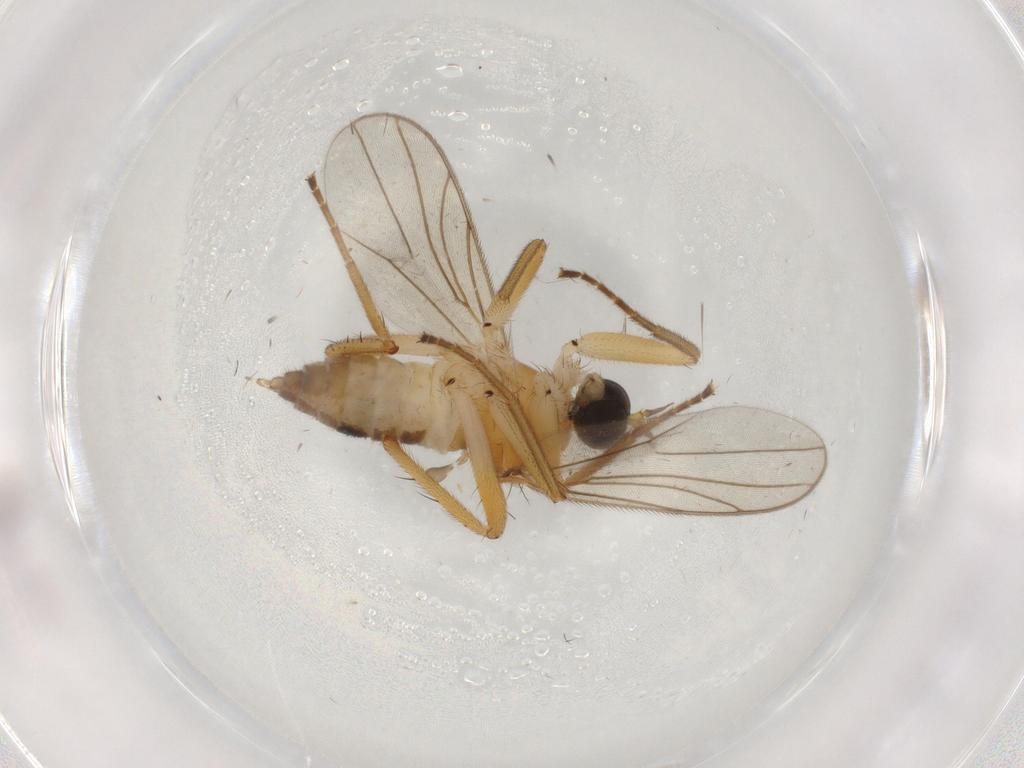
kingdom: Animalia
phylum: Arthropoda
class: Insecta
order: Diptera
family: Hybotidae
